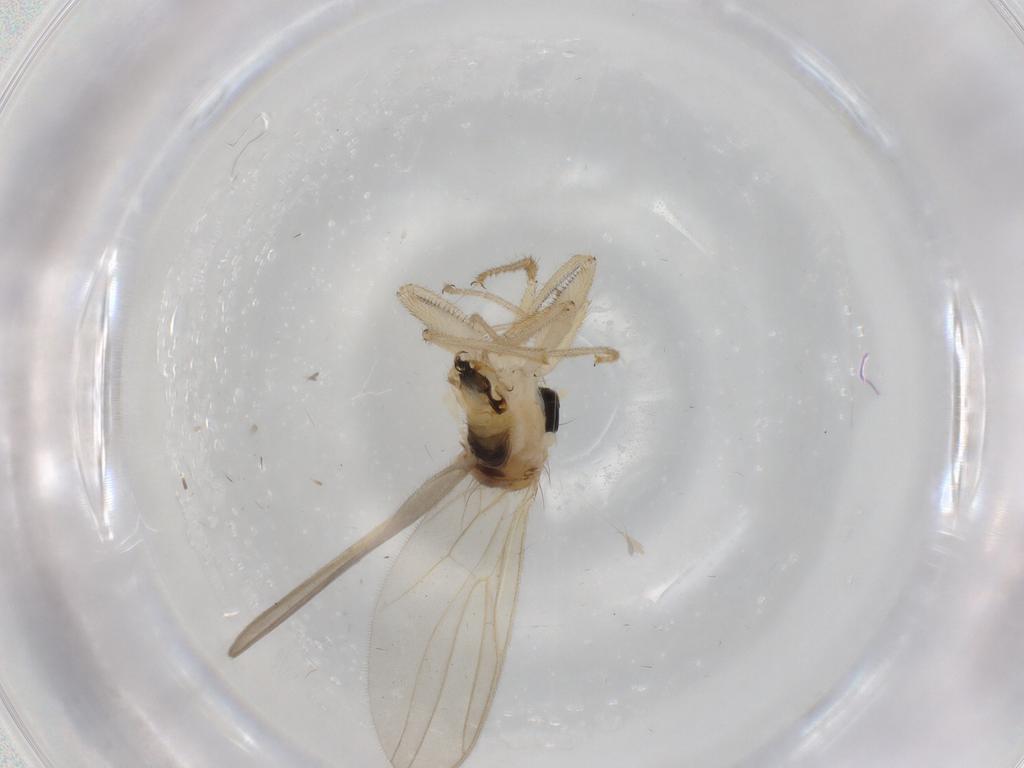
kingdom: Animalia
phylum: Arthropoda
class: Insecta
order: Diptera
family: Hybotidae
